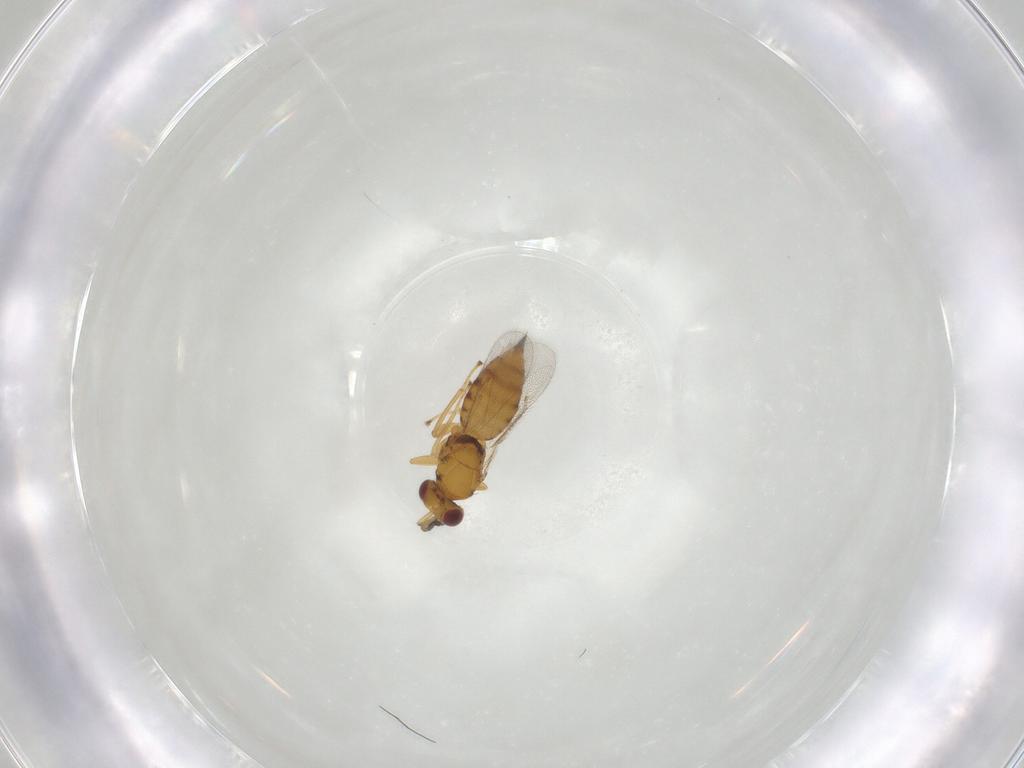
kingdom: Animalia
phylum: Arthropoda
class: Insecta
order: Hymenoptera
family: Eulophidae
